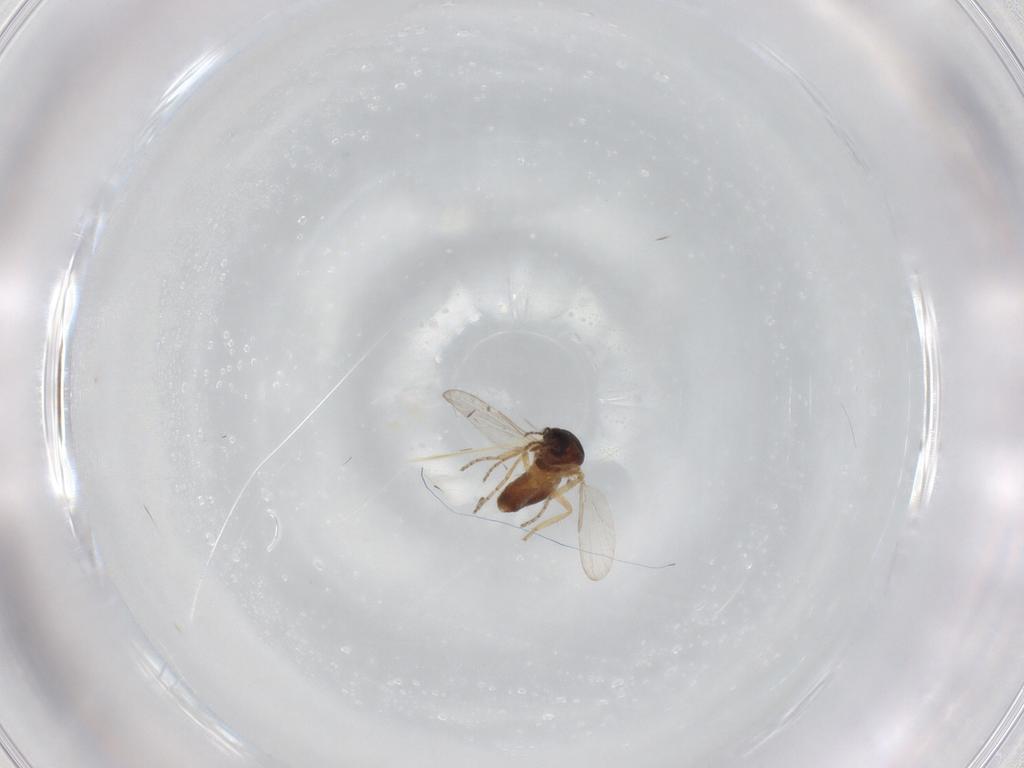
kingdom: Animalia
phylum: Arthropoda
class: Insecta
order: Diptera
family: Ceratopogonidae
